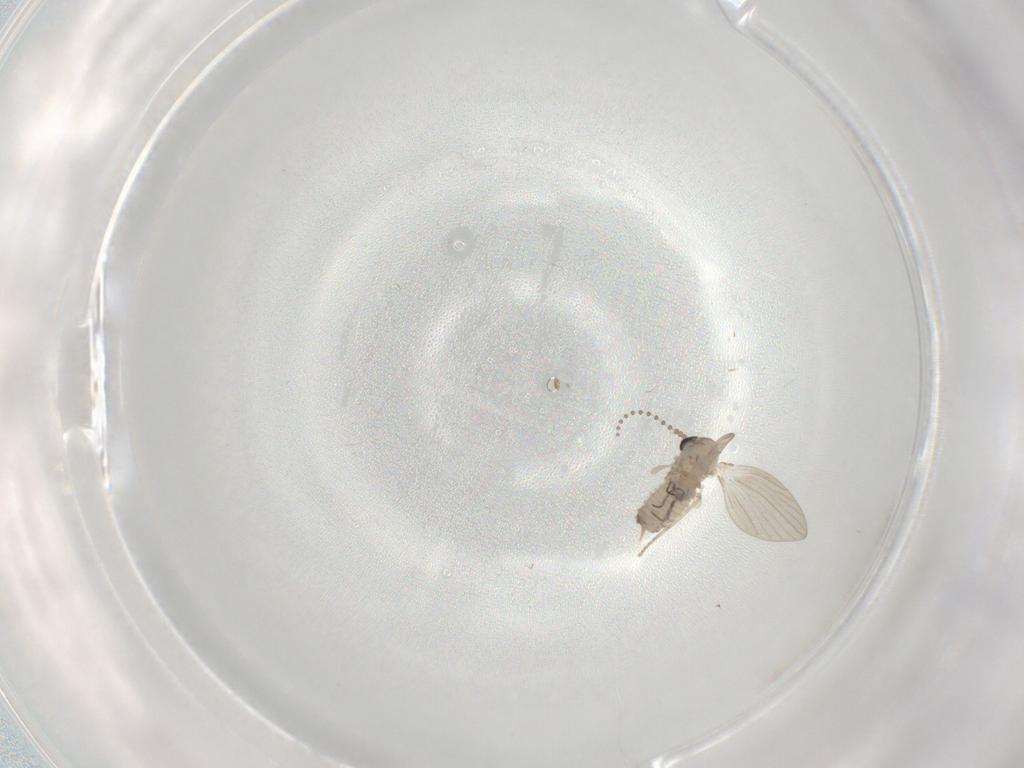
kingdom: Animalia
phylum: Arthropoda
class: Insecta
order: Diptera
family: Psychodidae
